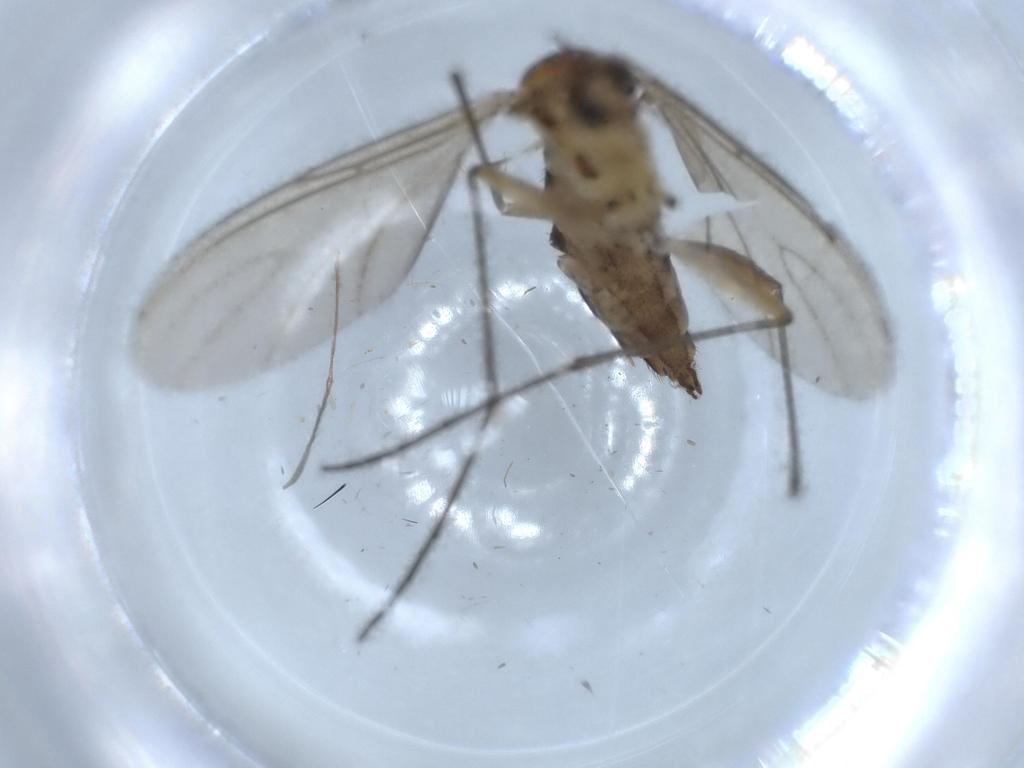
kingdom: Animalia
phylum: Arthropoda
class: Insecta
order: Diptera
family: Sciaridae
